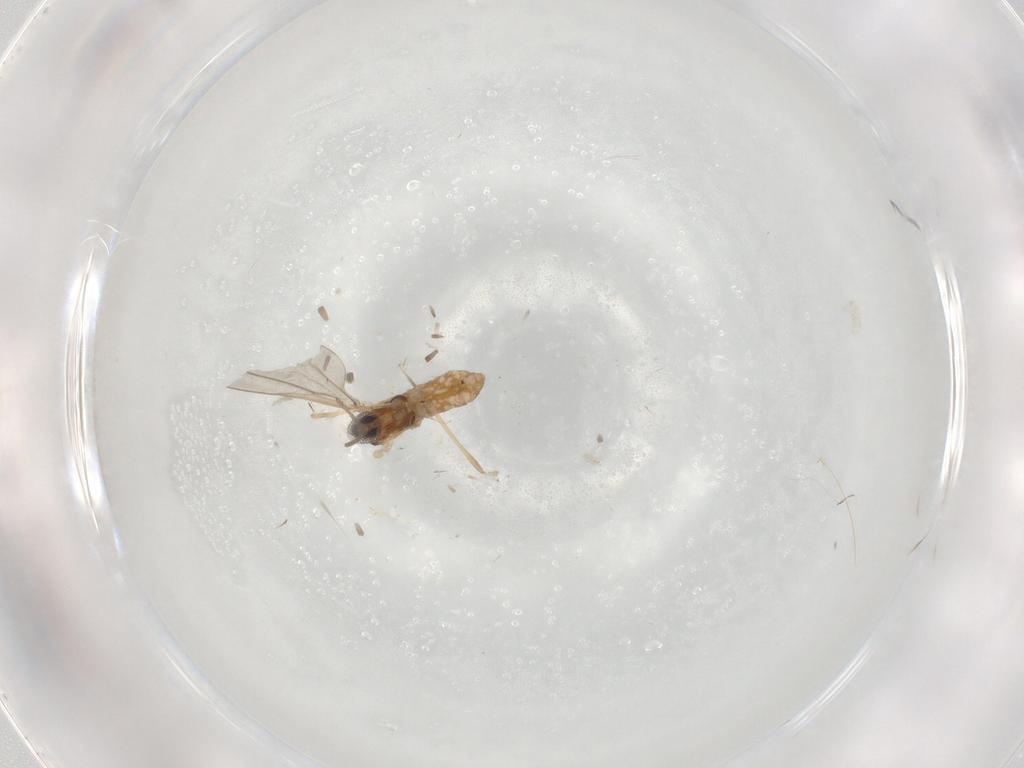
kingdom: Animalia
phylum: Arthropoda
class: Insecta
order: Diptera
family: Cecidomyiidae
